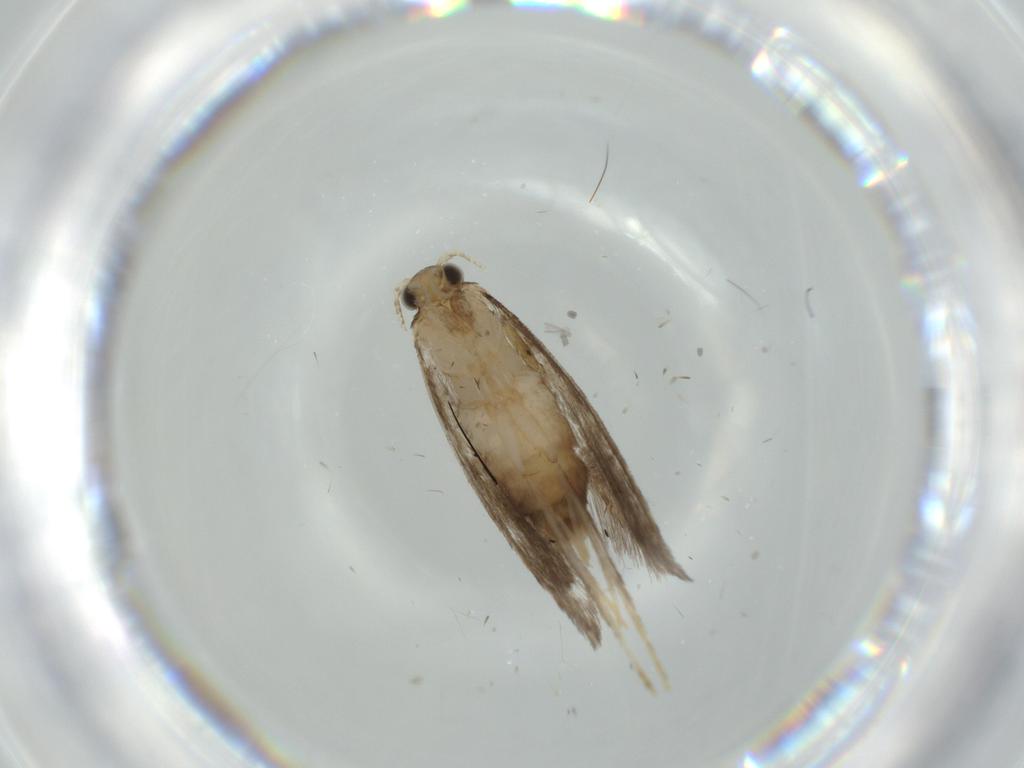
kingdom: Animalia
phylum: Arthropoda
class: Insecta
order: Lepidoptera
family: Tineidae
